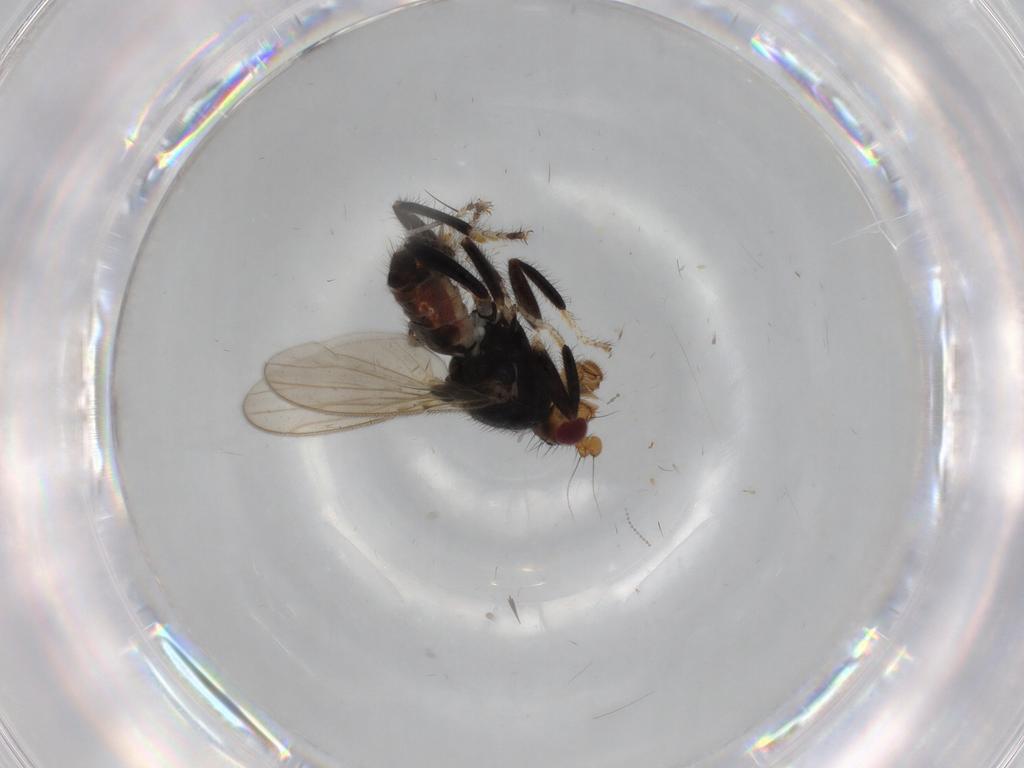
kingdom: Animalia
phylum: Arthropoda
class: Insecta
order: Diptera
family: Sphaeroceridae
